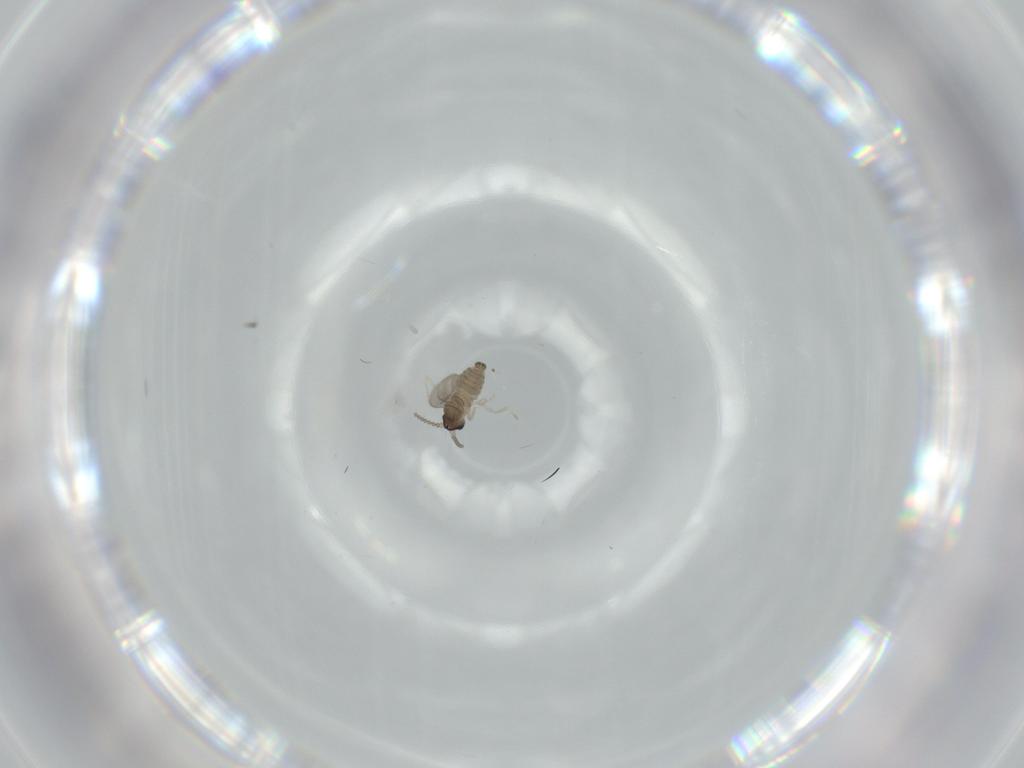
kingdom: Animalia
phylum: Arthropoda
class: Insecta
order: Diptera
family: Cecidomyiidae
